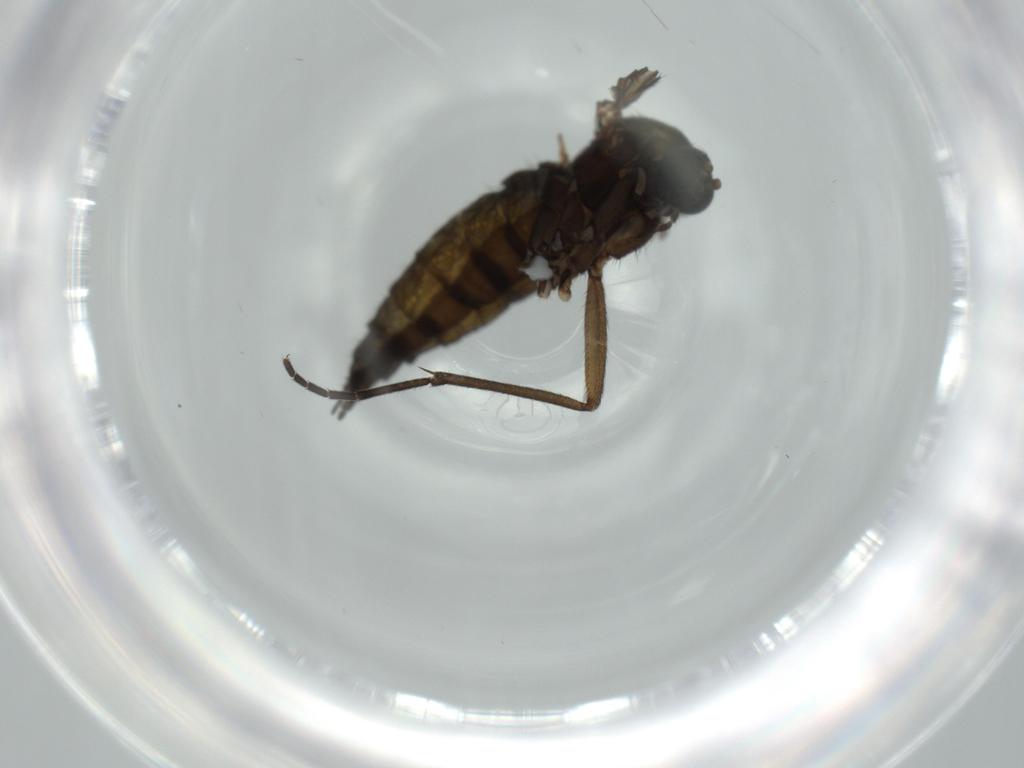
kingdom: Animalia
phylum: Arthropoda
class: Insecta
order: Diptera
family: Sciaridae
